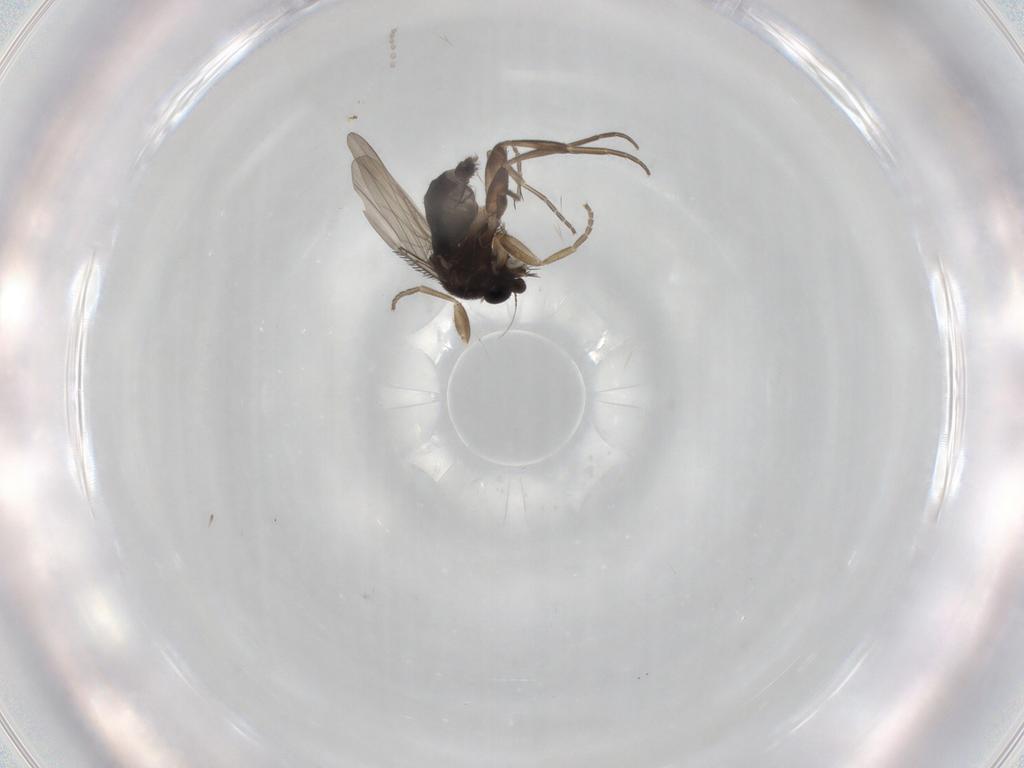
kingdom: Animalia
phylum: Arthropoda
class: Insecta
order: Diptera
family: Phoridae
